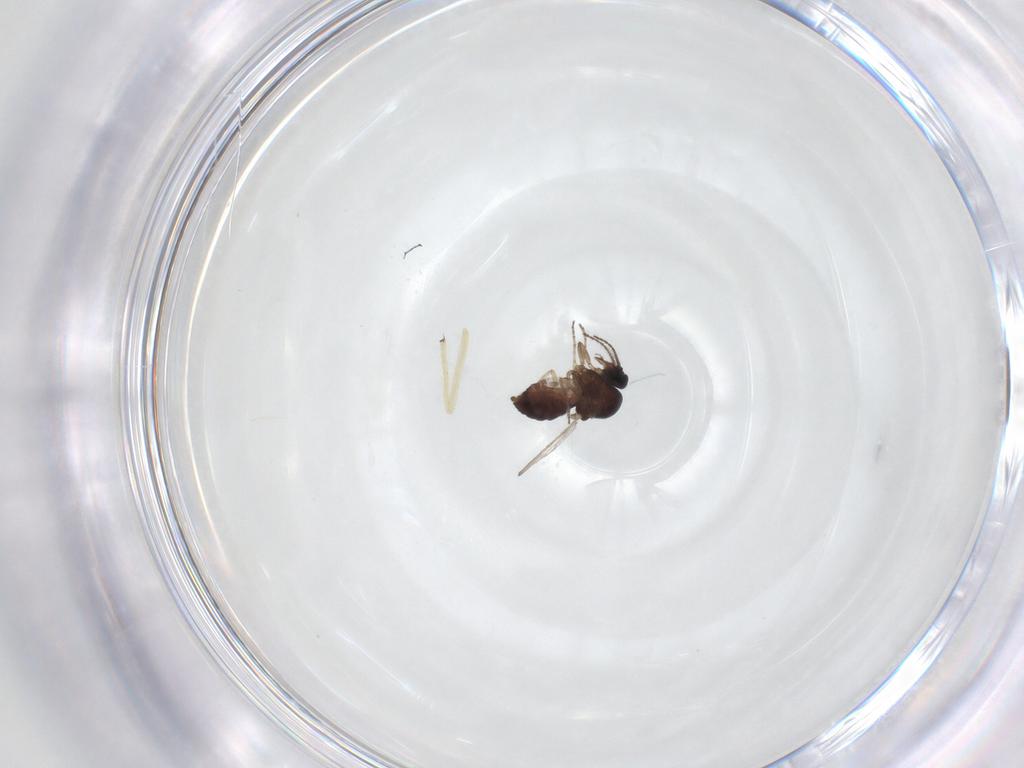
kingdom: Animalia
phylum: Arthropoda
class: Insecta
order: Diptera
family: Ceratopogonidae
